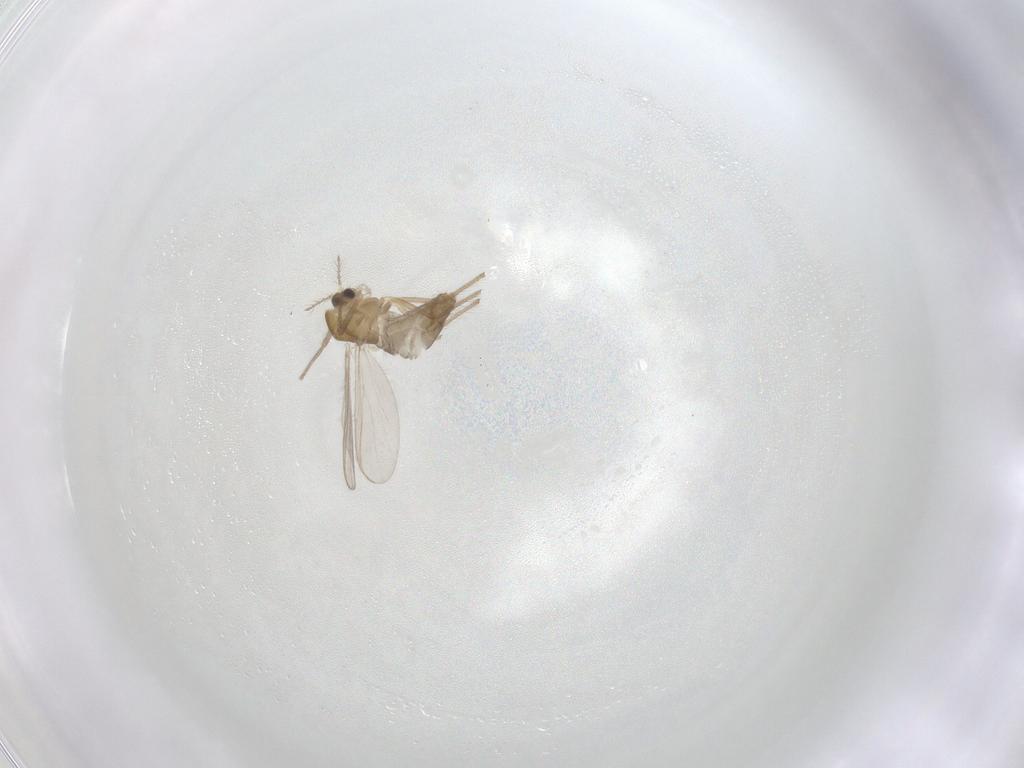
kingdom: Animalia
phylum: Arthropoda
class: Insecta
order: Diptera
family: Chironomidae
